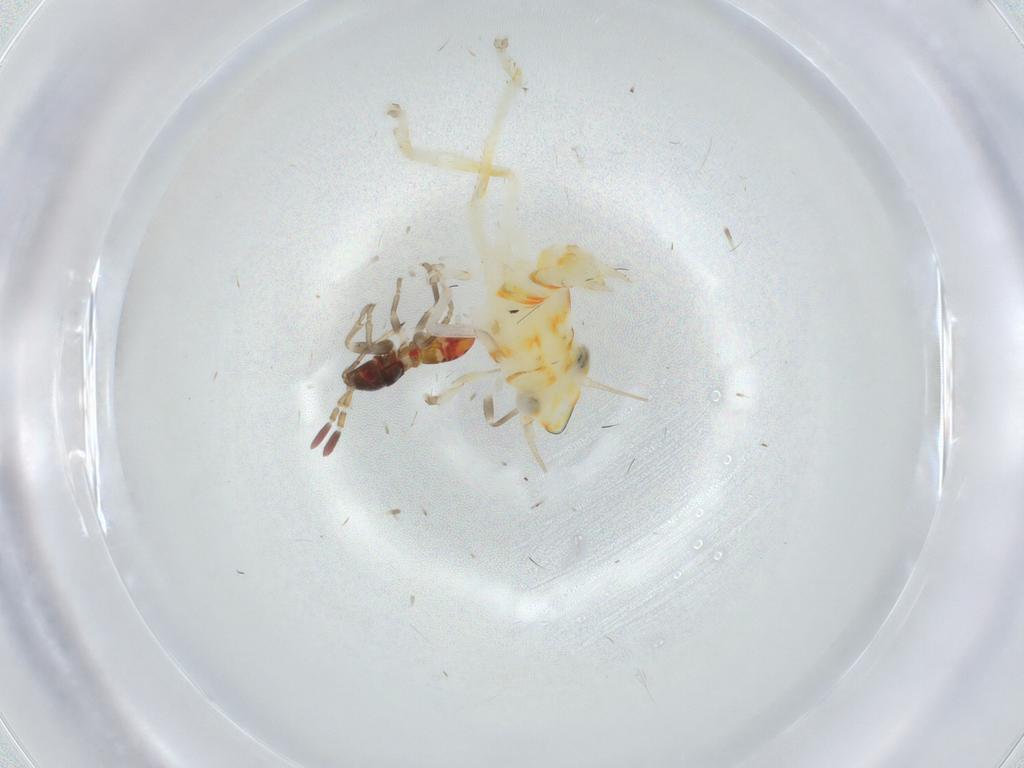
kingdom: Animalia
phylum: Arthropoda
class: Insecta
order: Hemiptera
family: Cicadellidae
